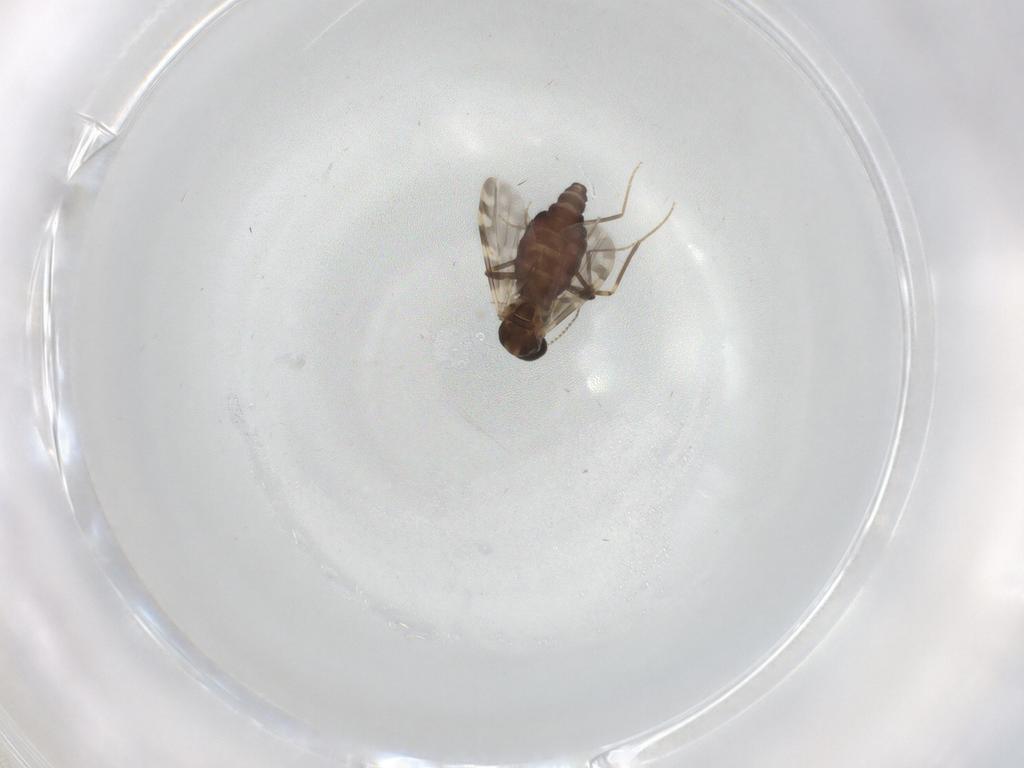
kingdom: Animalia
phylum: Arthropoda
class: Insecta
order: Diptera
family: Ceratopogonidae
